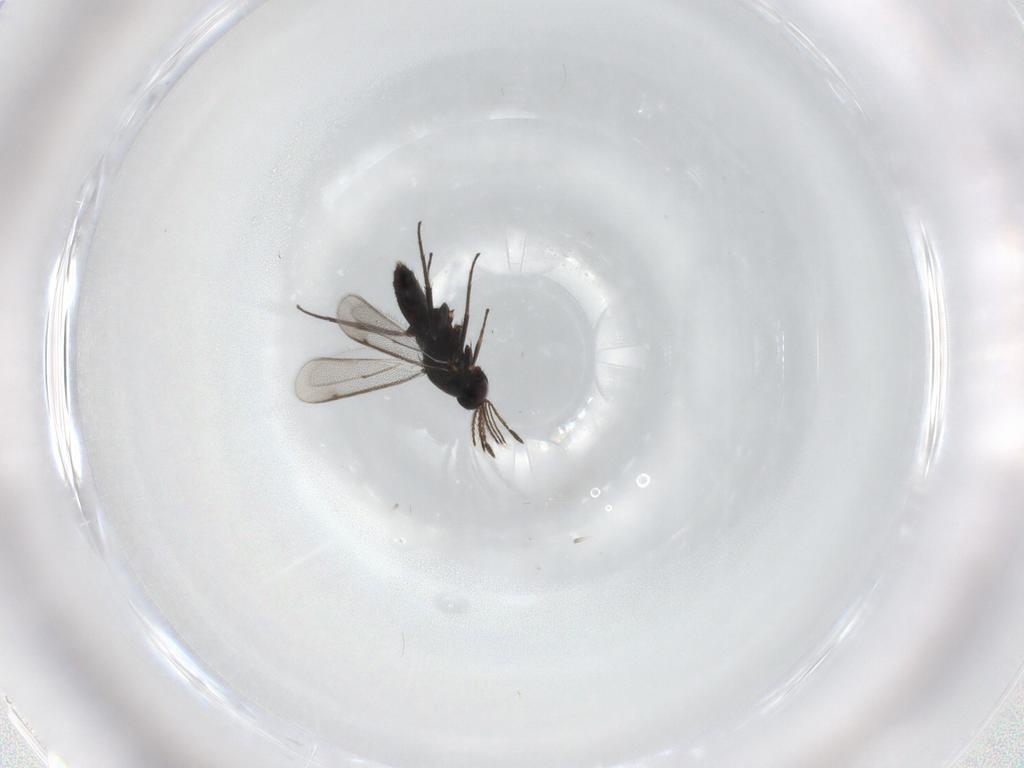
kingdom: Animalia
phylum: Arthropoda
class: Insecta
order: Hymenoptera
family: Eulophidae
